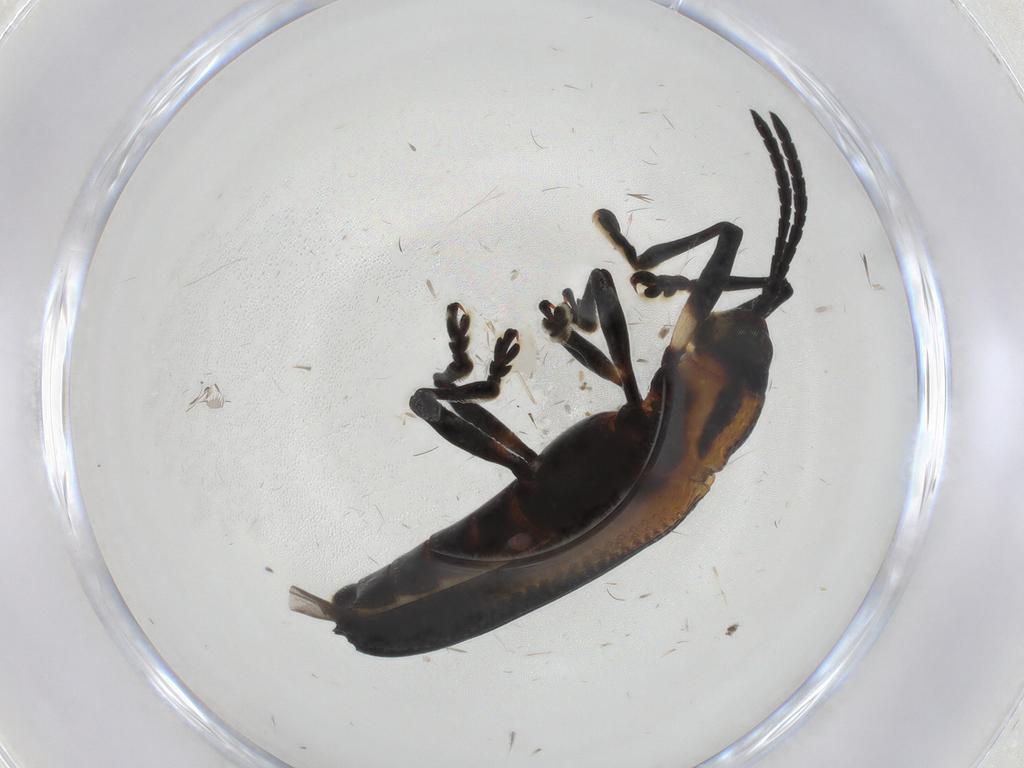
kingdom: Animalia
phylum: Arthropoda
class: Insecta
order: Coleoptera
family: Chrysomelidae
